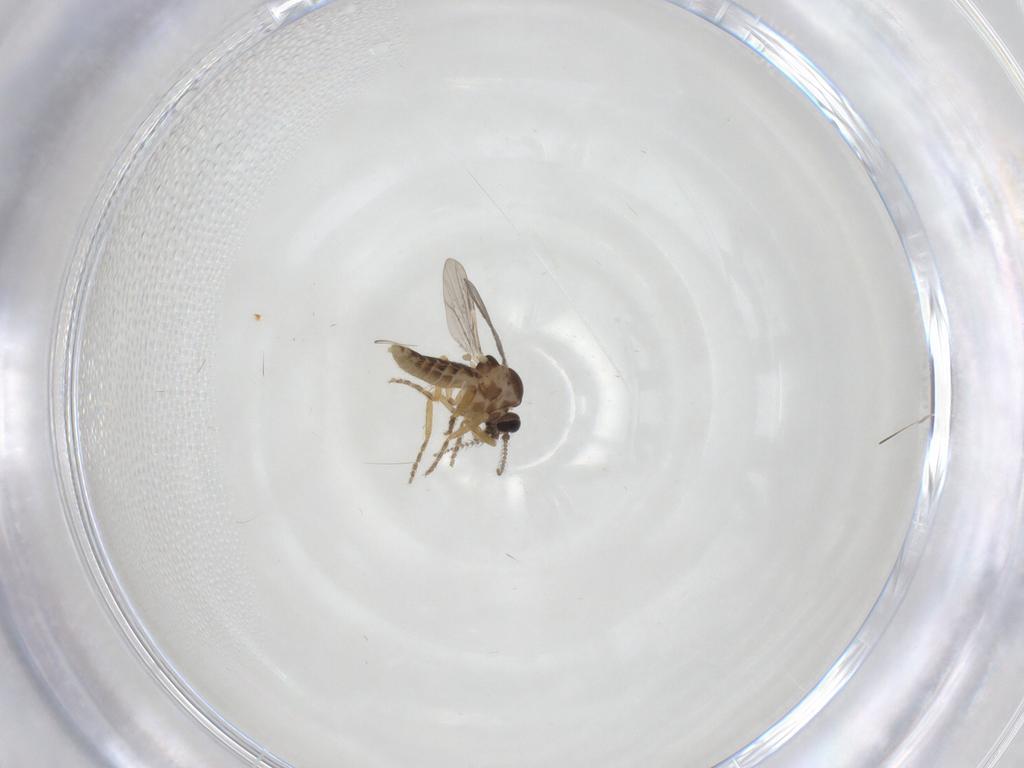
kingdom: Animalia
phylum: Arthropoda
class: Insecta
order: Diptera
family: Ceratopogonidae
